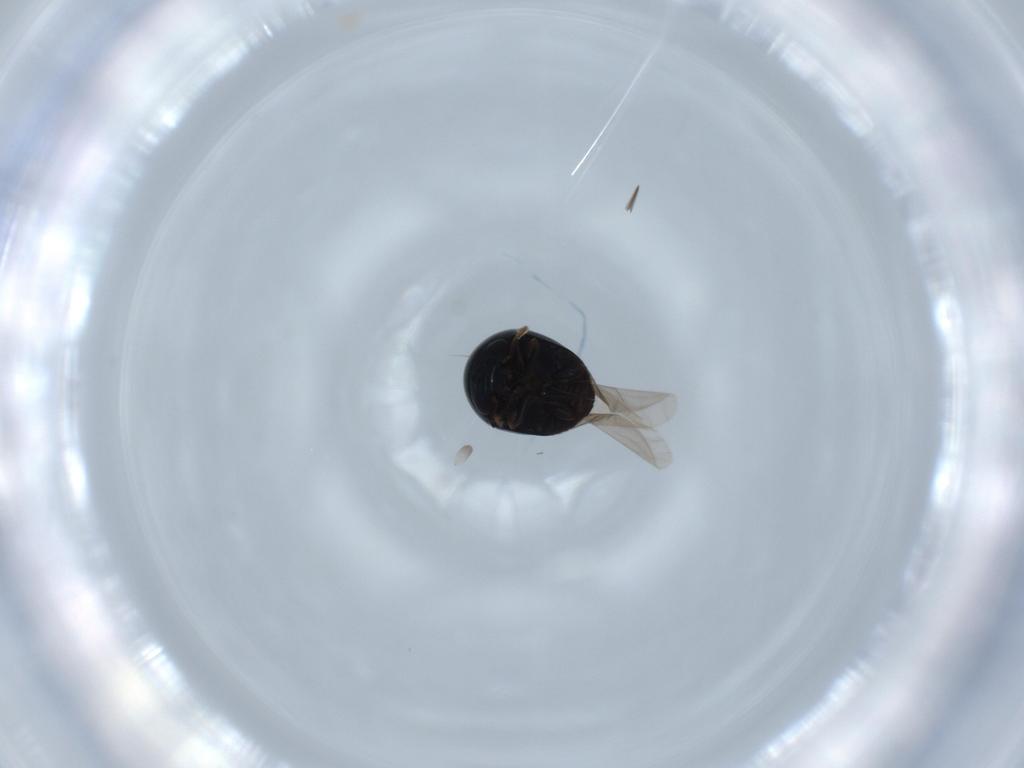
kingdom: Animalia
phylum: Arthropoda
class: Insecta
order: Coleoptera
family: Cybocephalidae
